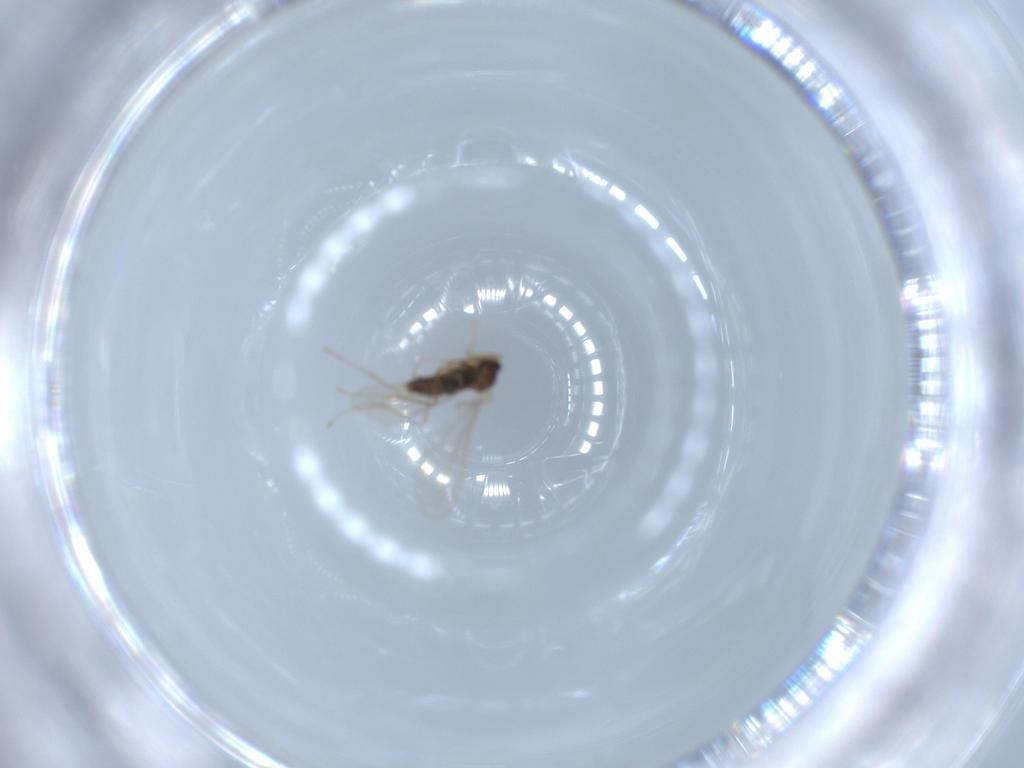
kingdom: Animalia
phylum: Arthropoda
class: Insecta
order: Diptera
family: Cecidomyiidae
